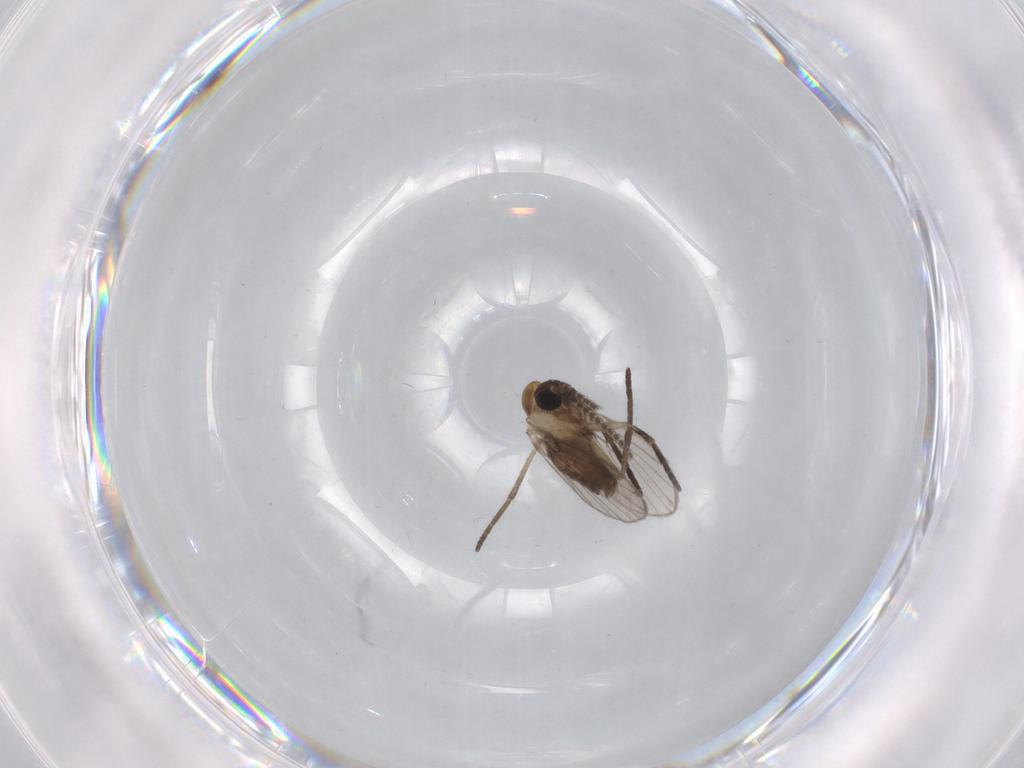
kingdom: Animalia
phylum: Arthropoda
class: Insecta
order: Diptera
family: Psychodidae
